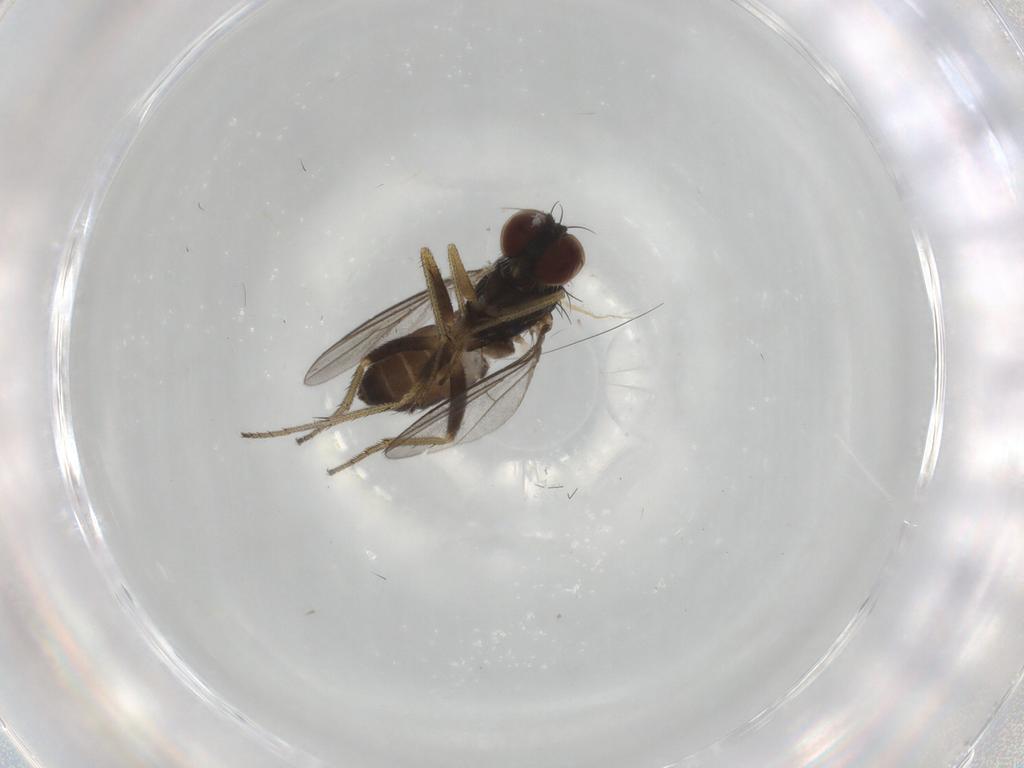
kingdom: Animalia
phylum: Arthropoda
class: Insecta
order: Diptera
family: Dolichopodidae
